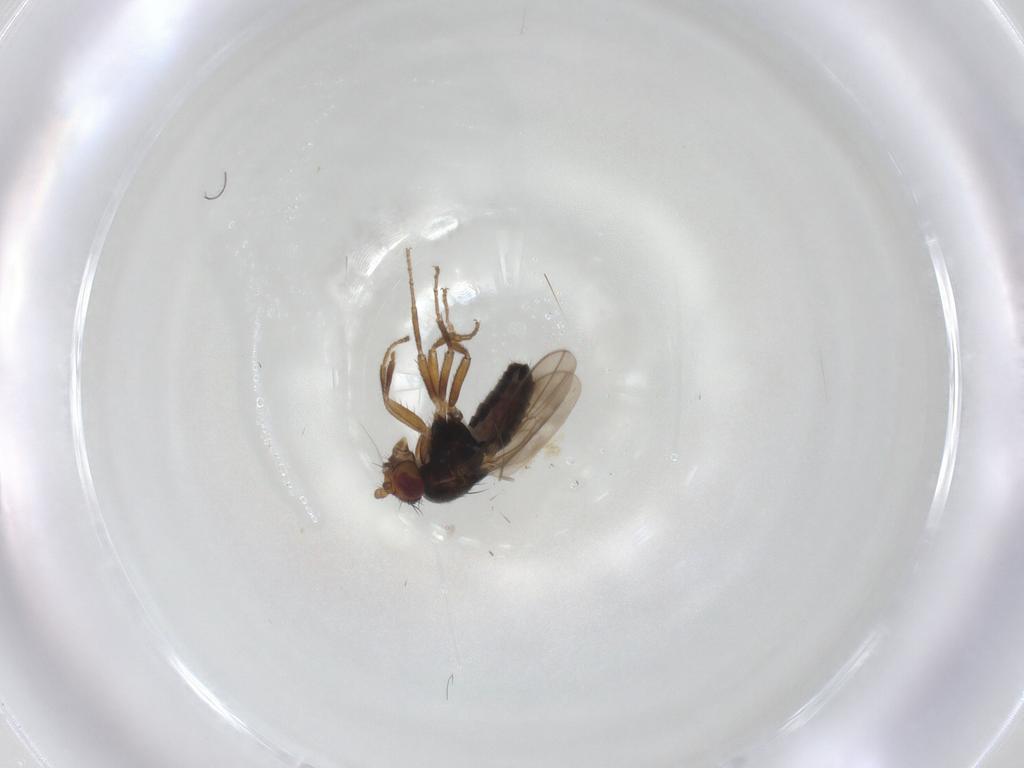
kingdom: Animalia
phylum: Arthropoda
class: Insecta
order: Diptera
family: Sphaeroceridae
